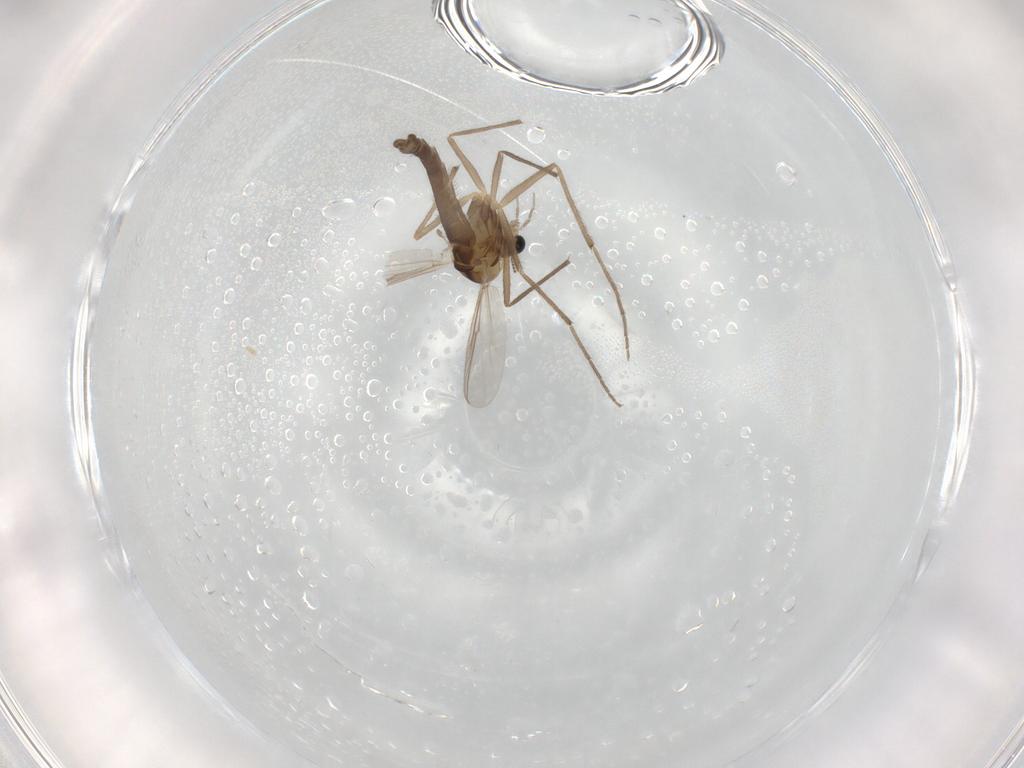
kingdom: Animalia
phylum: Arthropoda
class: Insecta
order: Diptera
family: Chironomidae
